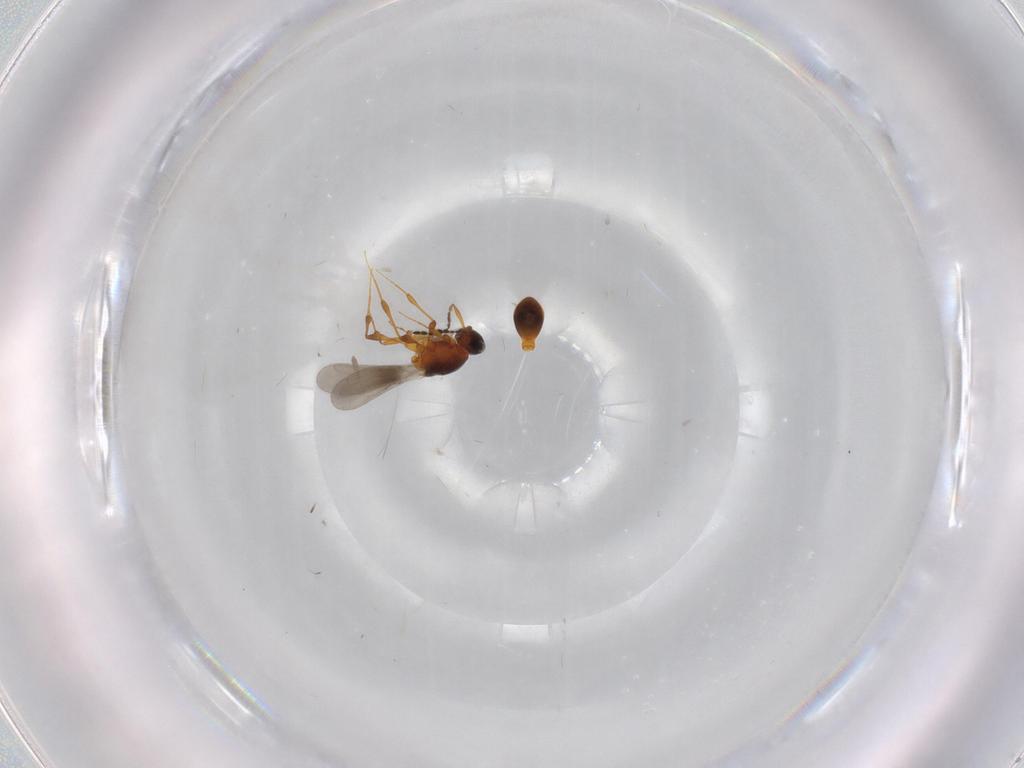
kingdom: Animalia
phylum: Arthropoda
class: Insecta
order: Hymenoptera
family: Platygastridae
